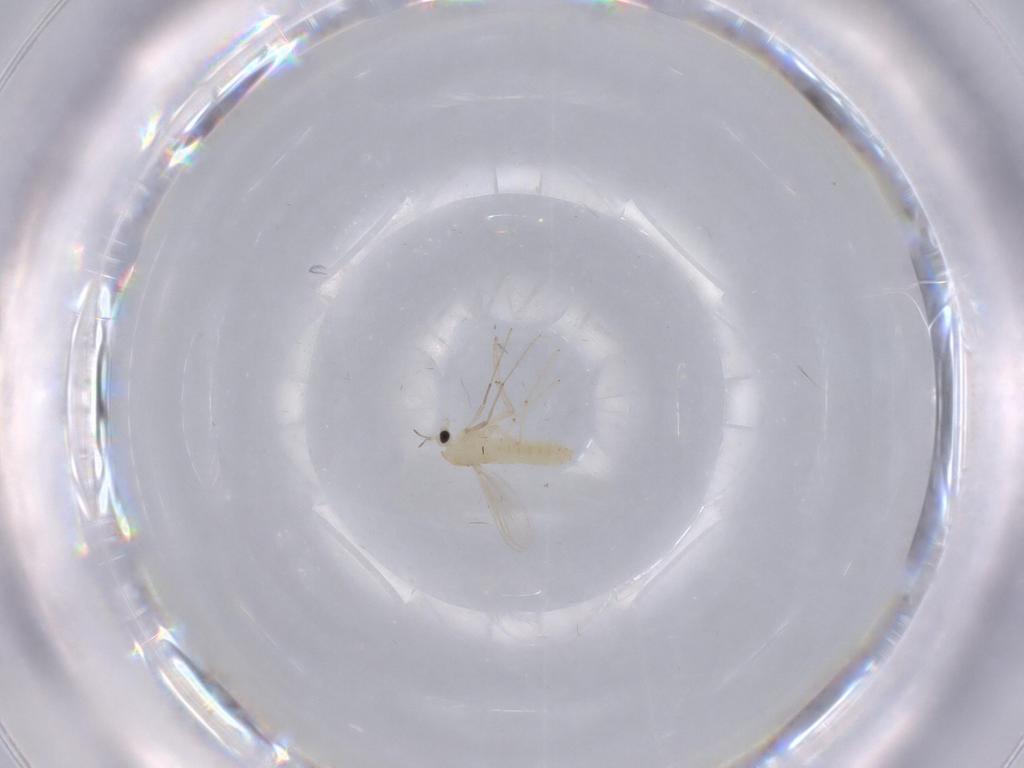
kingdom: Animalia
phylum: Arthropoda
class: Insecta
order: Diptera
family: Chironomidae
